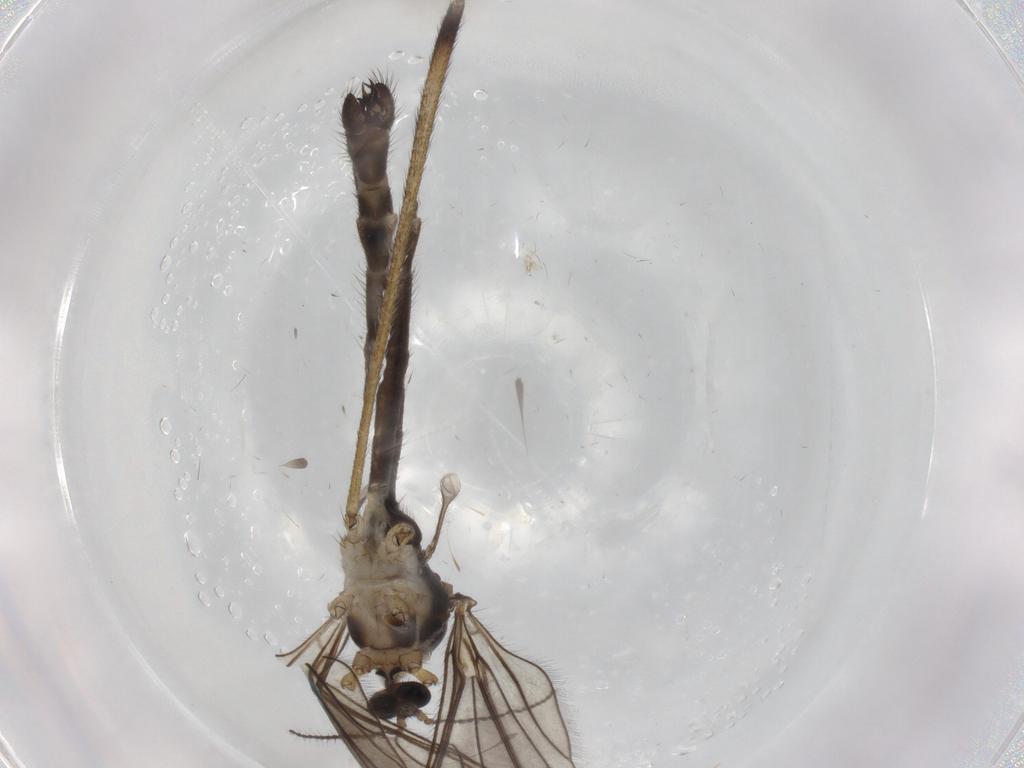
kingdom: Animalia
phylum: Arthropoda
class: Insecta
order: Diptera
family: Limoniidae
